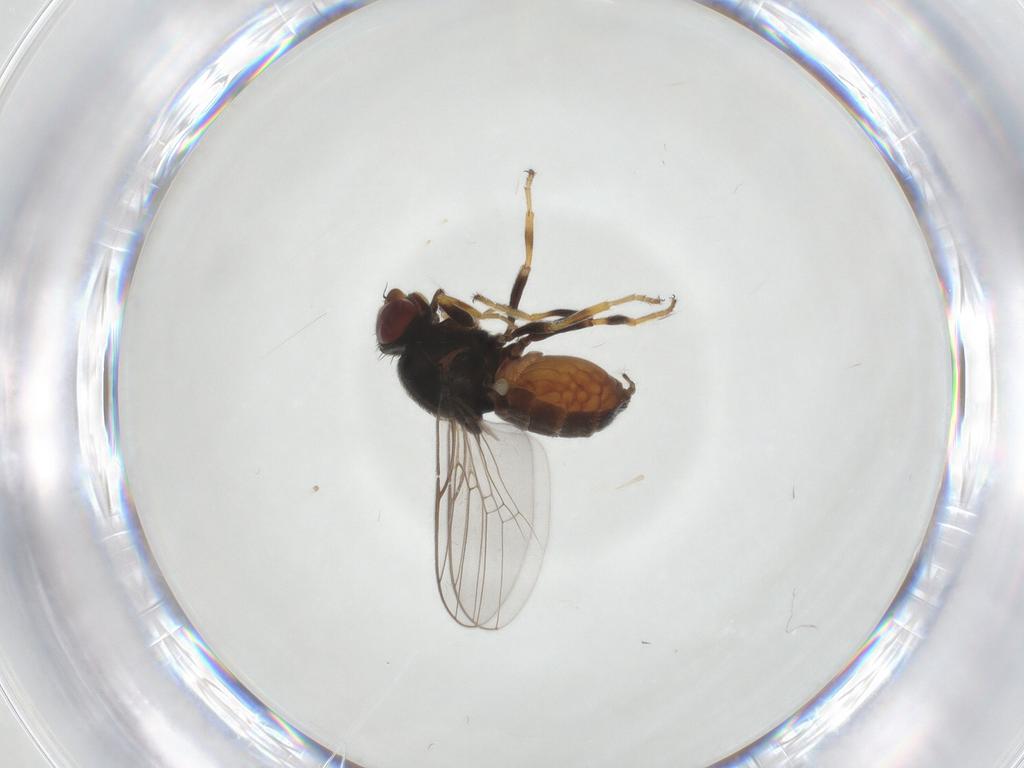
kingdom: Animalia
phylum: Arthropoda
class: Insecta
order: Diptera
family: Chloropidae
